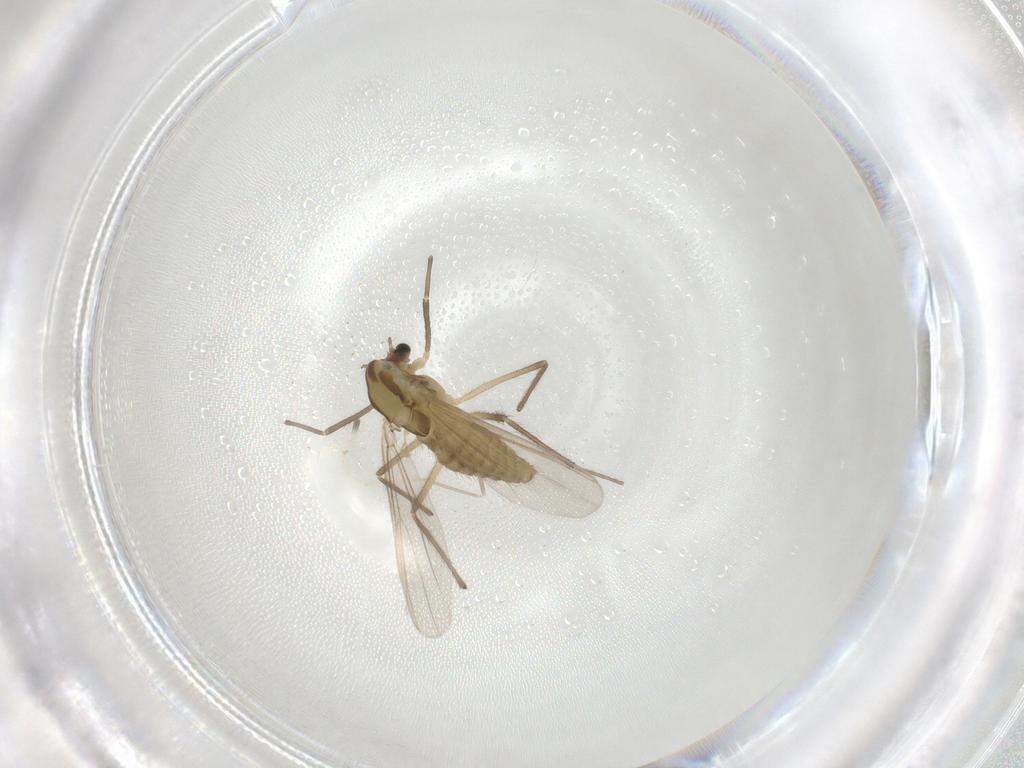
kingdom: Animalia
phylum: Arthropoda
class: Insecta
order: Diptera
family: Chironomidae
